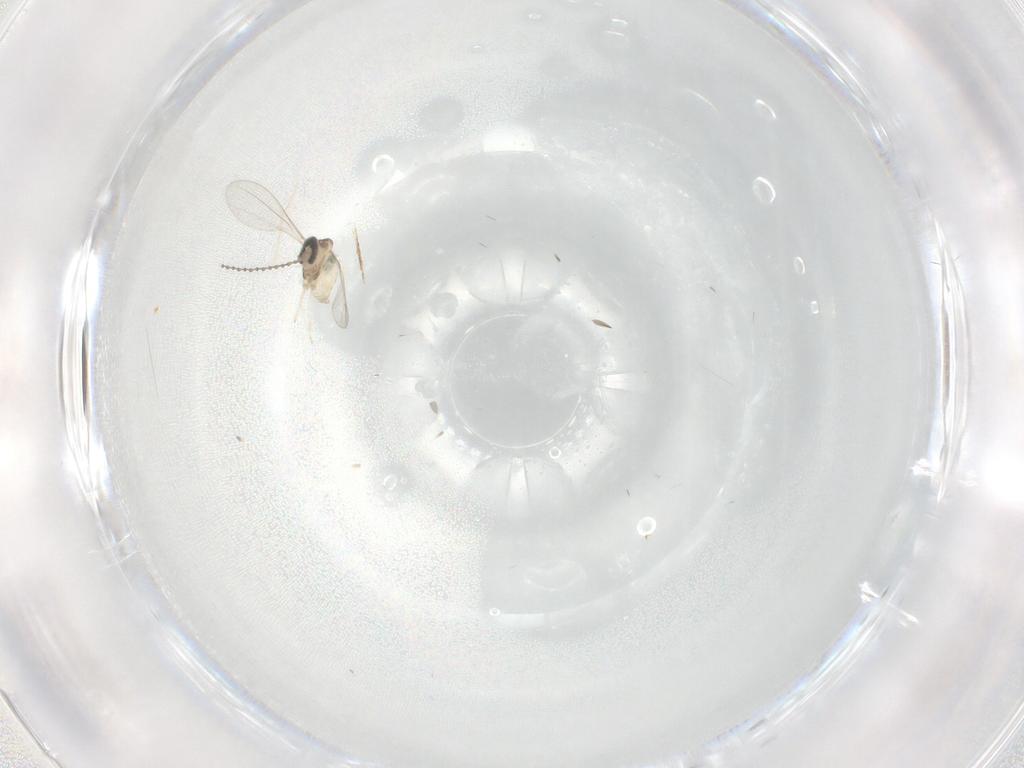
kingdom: Animalia
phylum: Arthropoda
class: Insecta
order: Diptera
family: Cecidomyiidae
